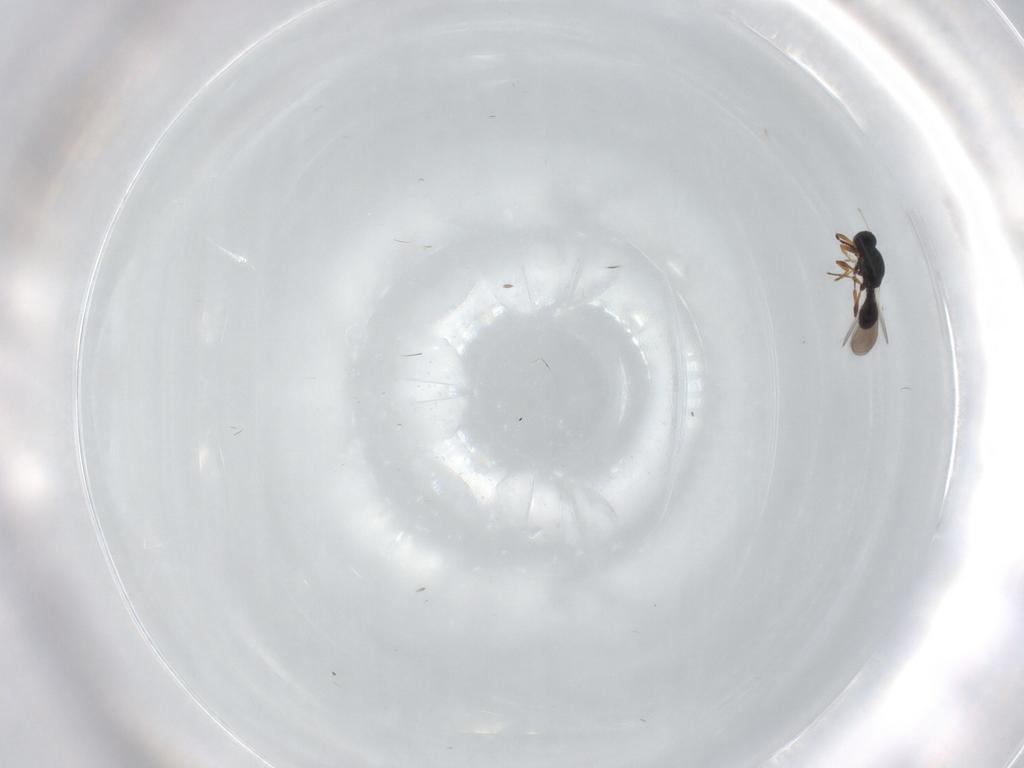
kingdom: Animalia
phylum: Arthropoda
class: Insecta
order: Hymenoptera
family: Platygastridae
